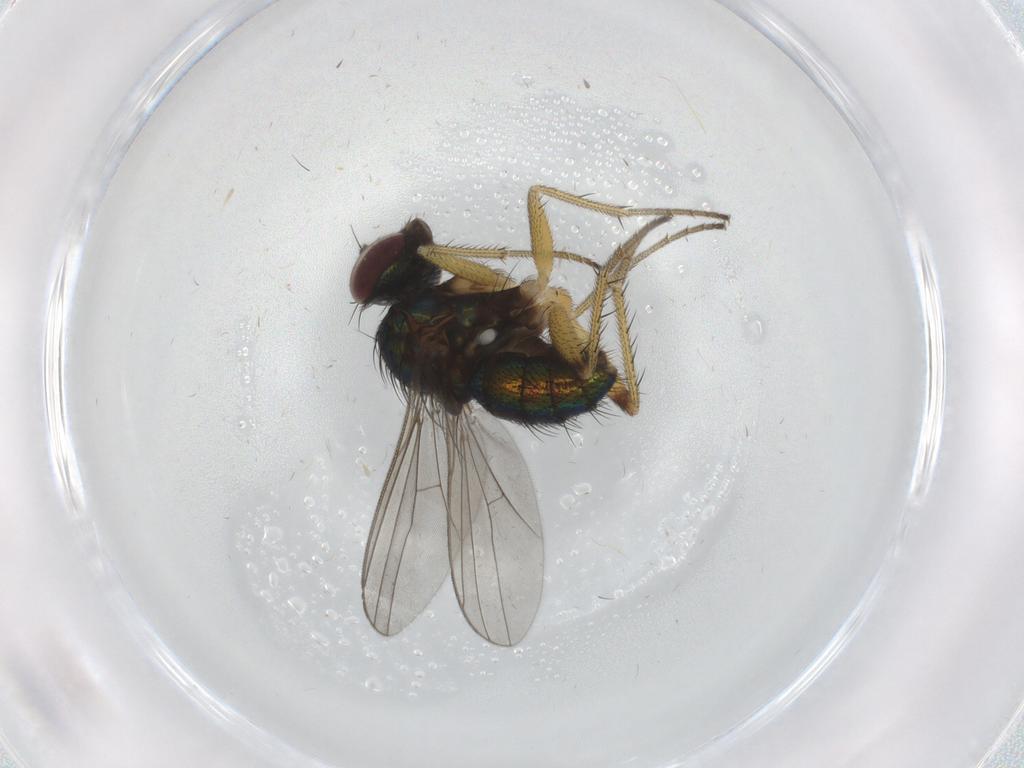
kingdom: Animalia
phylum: Arthropoda
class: Insecta
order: Diptera
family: Dolichopodidae
